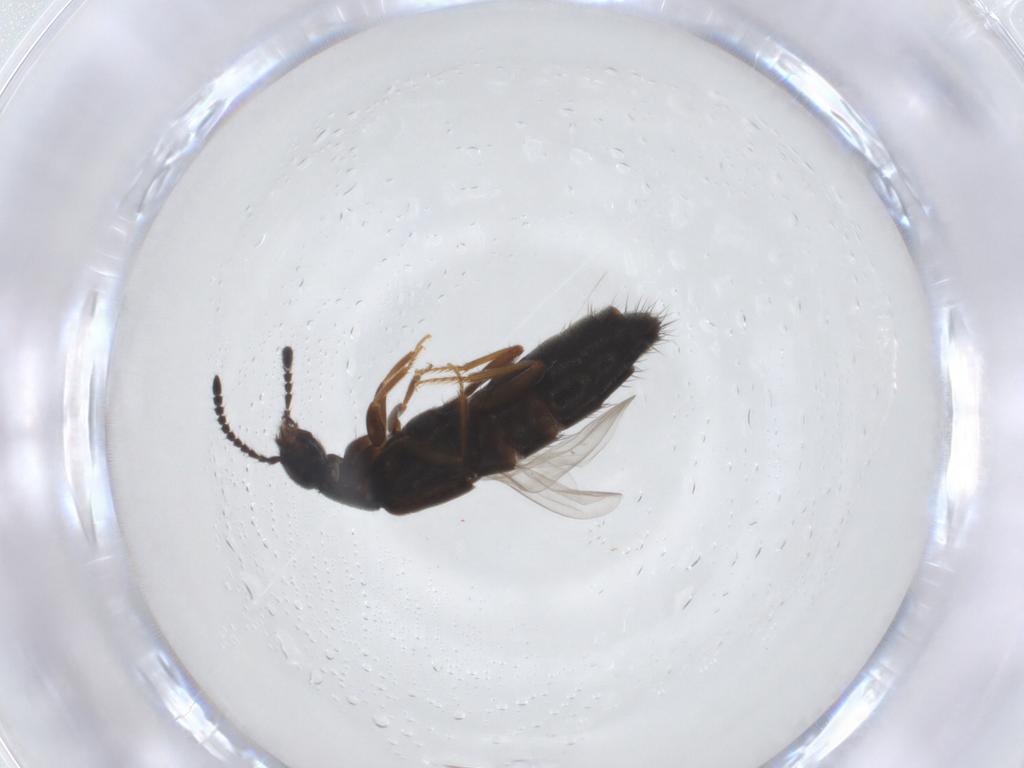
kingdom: Animalia
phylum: Arthropoda
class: Insecta
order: Coleoptera
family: Staphylinidae
